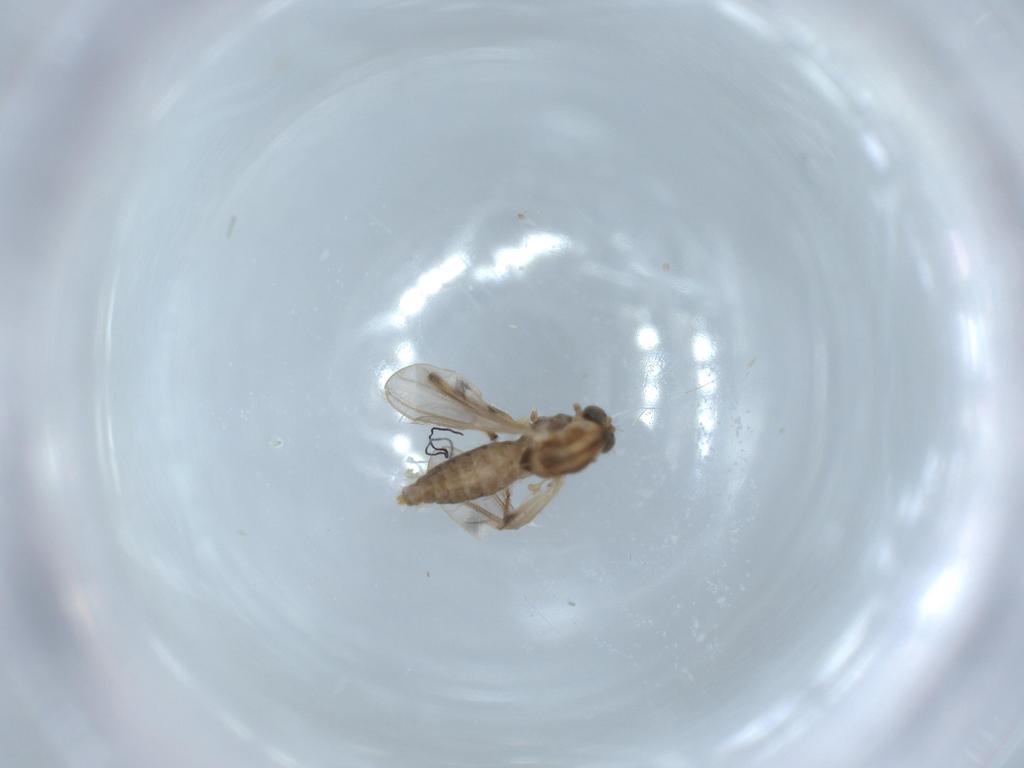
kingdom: Animalia
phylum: Arthropoda
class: Insecta
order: Diptera
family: Chironomidae
